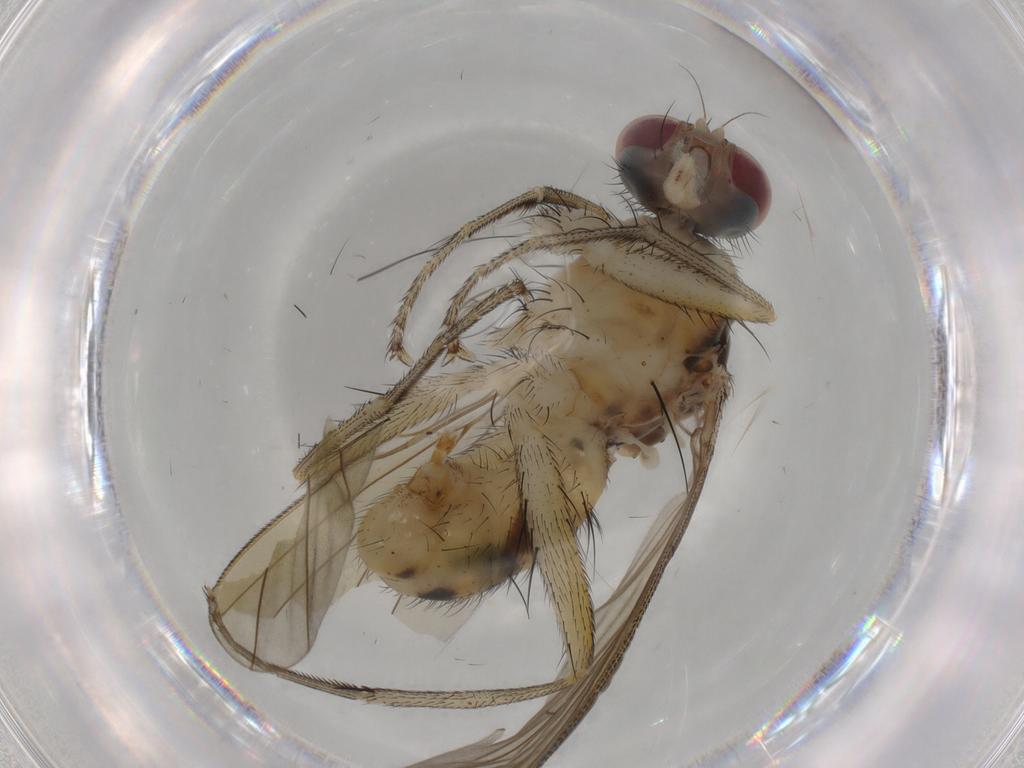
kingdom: Animalia
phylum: Arthropoda
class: Insecta
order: Diptera
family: Muscidae
